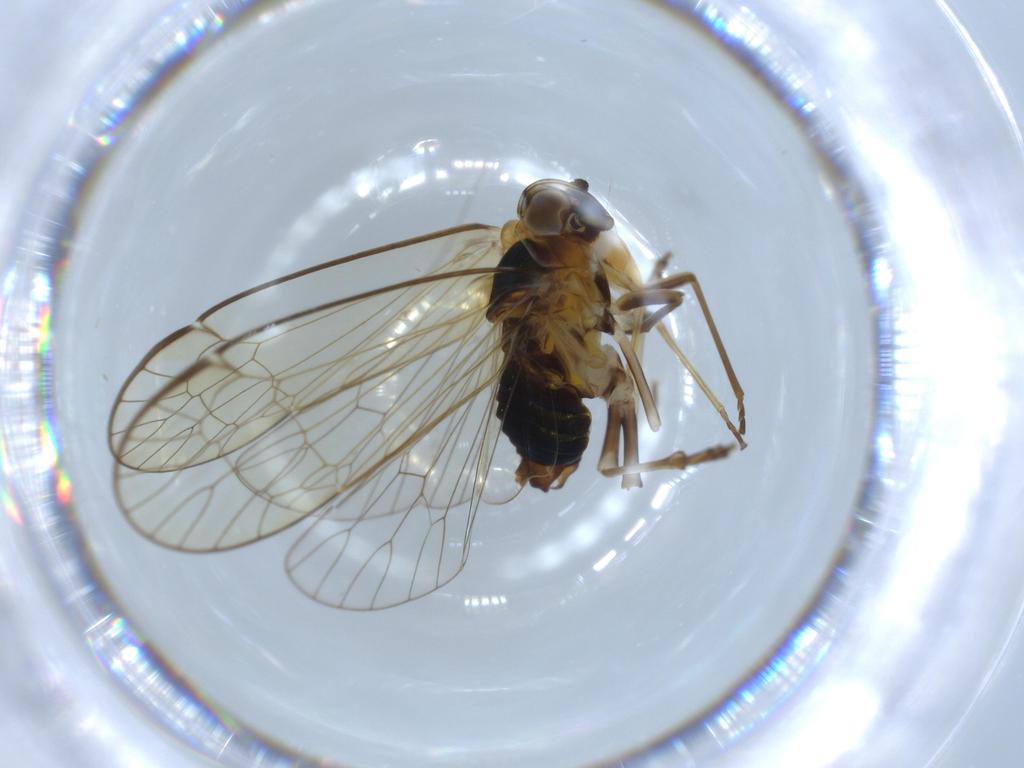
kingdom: Animalia
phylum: Arthropoda
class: Insecta
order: Hemiptera
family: Kinnaridae
